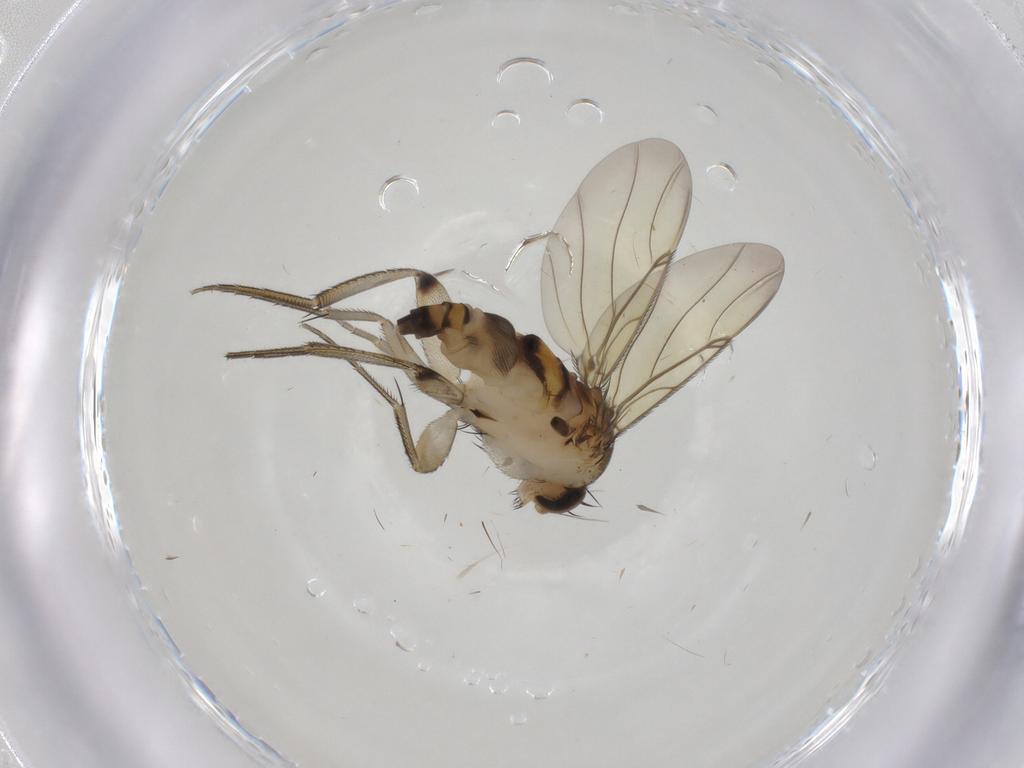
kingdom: Animalia
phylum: Arthropoda
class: Insecta
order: Diptera
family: Phoridae
